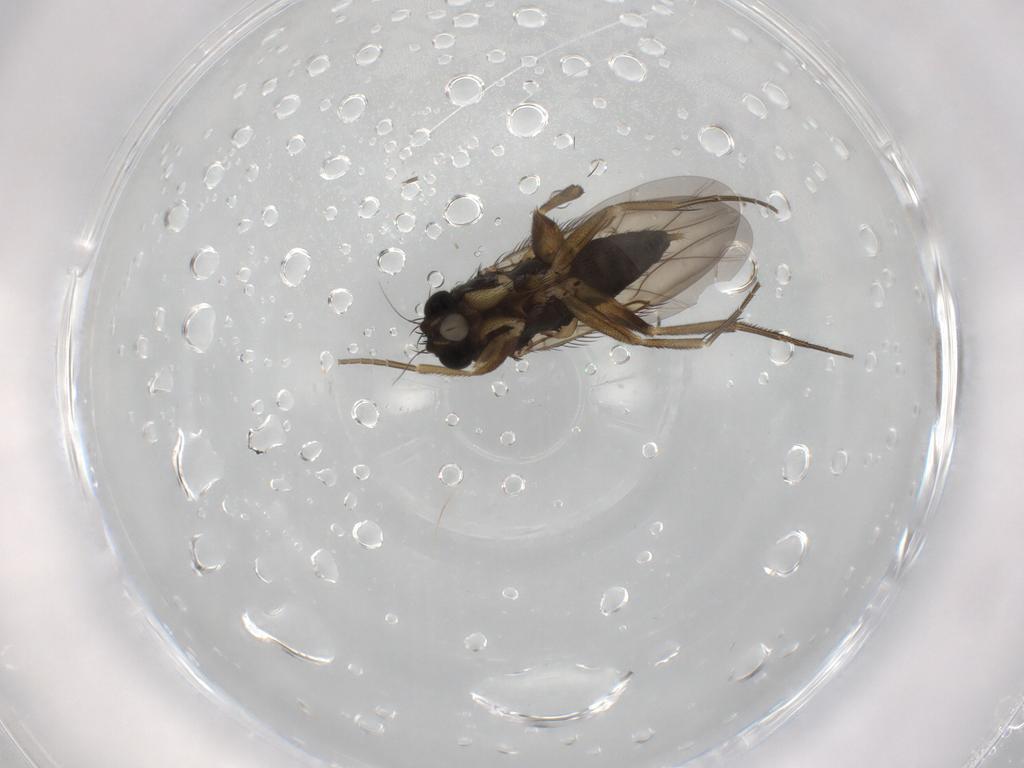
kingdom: Animalia
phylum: Arthropoda
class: Insecta
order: Diptera
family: Phoridae
